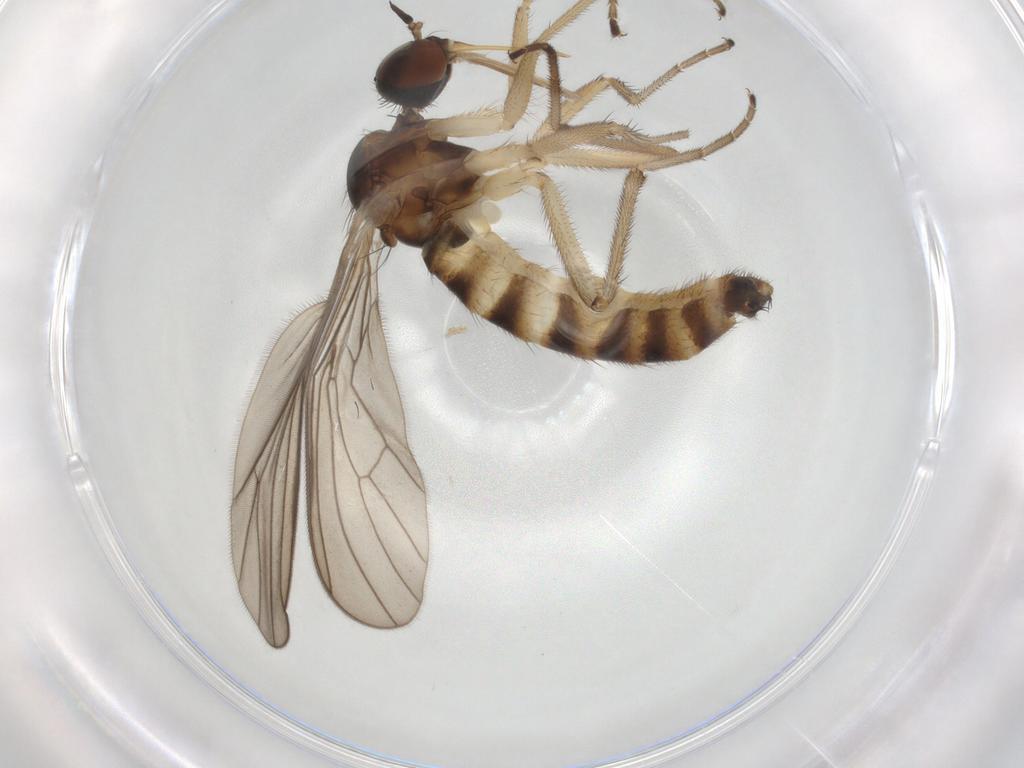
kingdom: Animalia
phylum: Arthropoda
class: Insecta
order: Diptera
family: Cecidomyiidae
